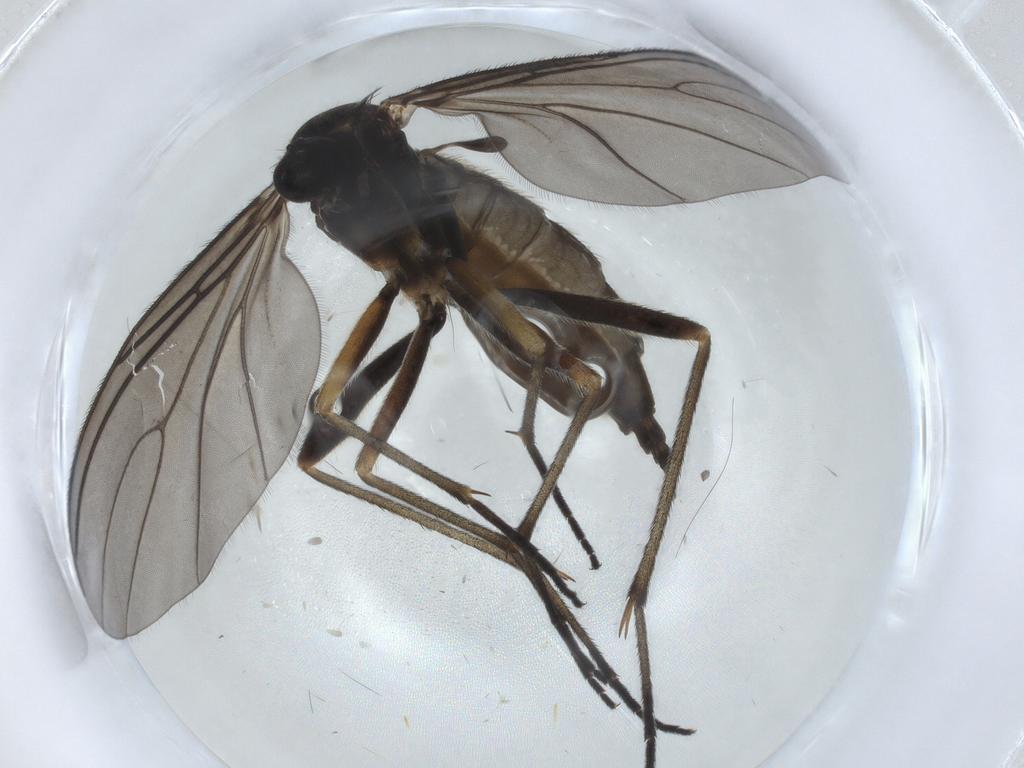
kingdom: Animalia
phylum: Arthropoda
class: Insecta
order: Diptera
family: Sciaridae
